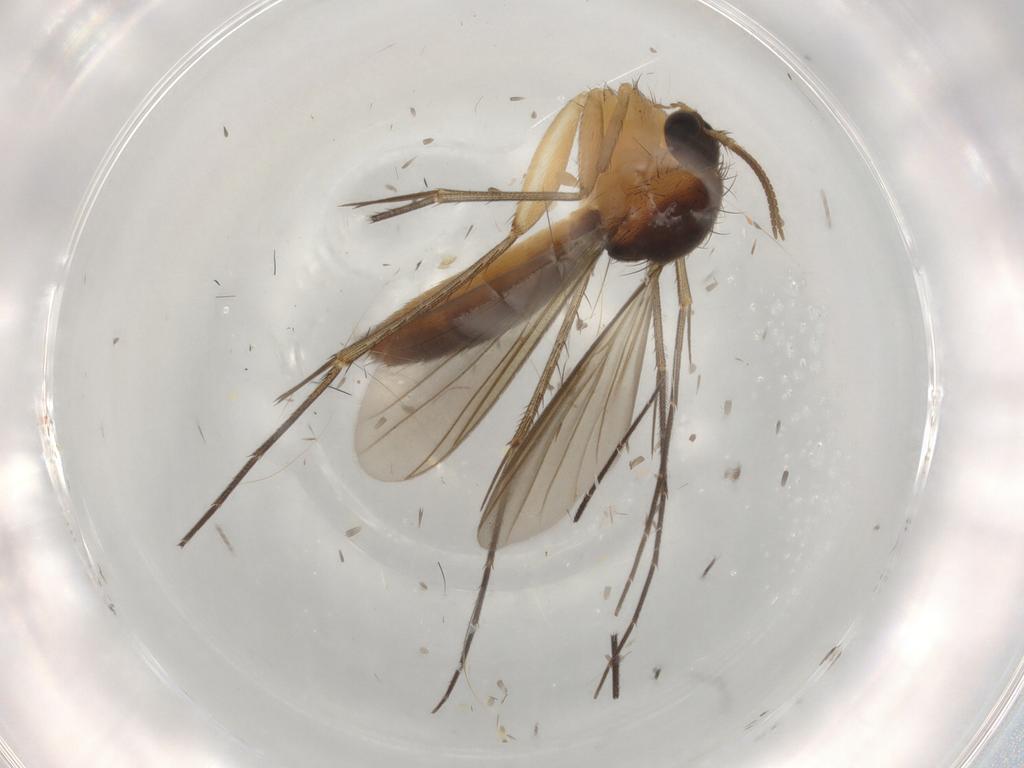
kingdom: Animalia
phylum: Arthropoda
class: Insecta
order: Diptera
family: Mycetophilidae
